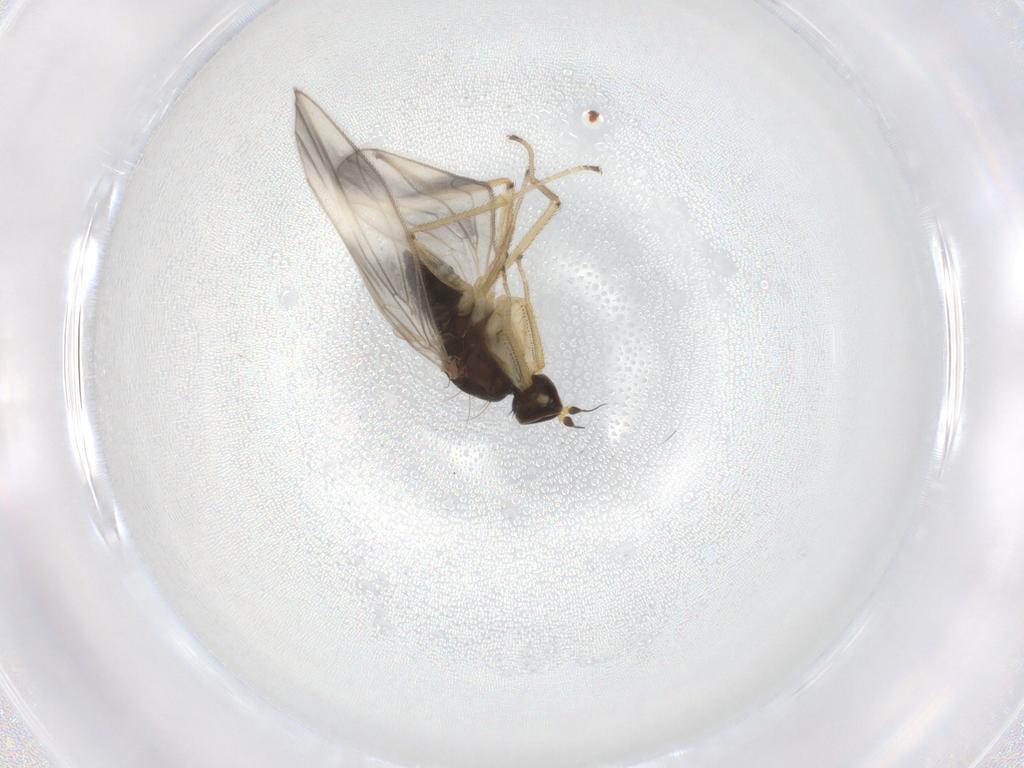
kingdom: Animalia
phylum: Arthropoda
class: Insecta
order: Diptera
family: Empididae
